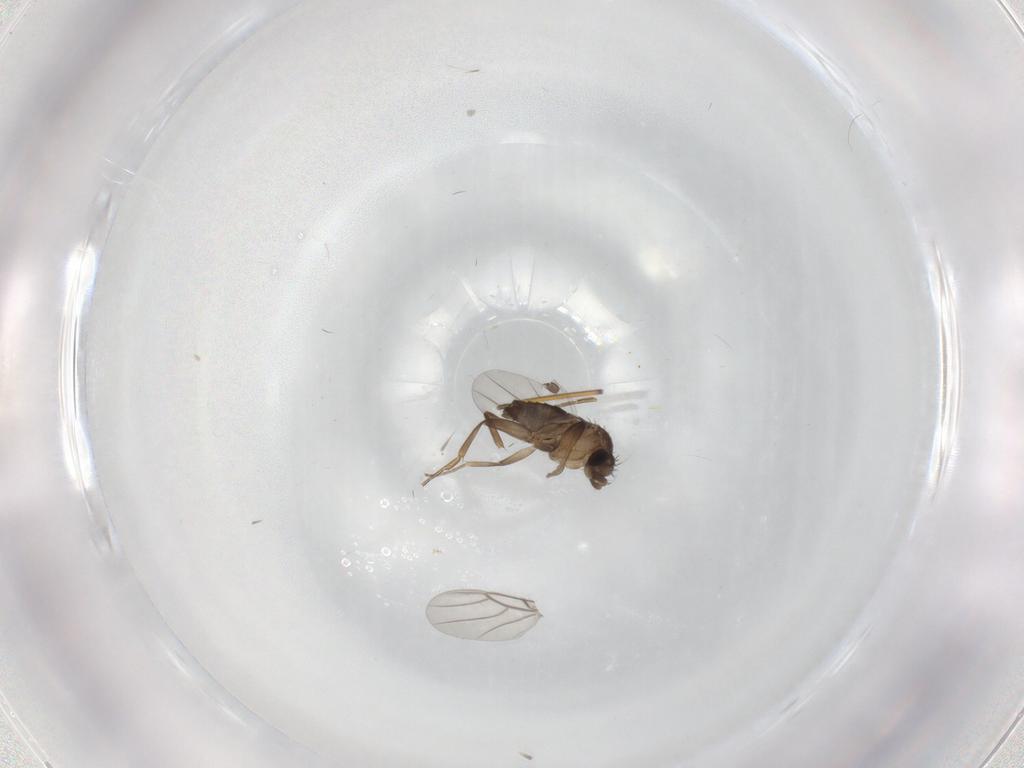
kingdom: Animalia
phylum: Arthropoda
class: Insecta
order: Diptera
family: Phoridae
